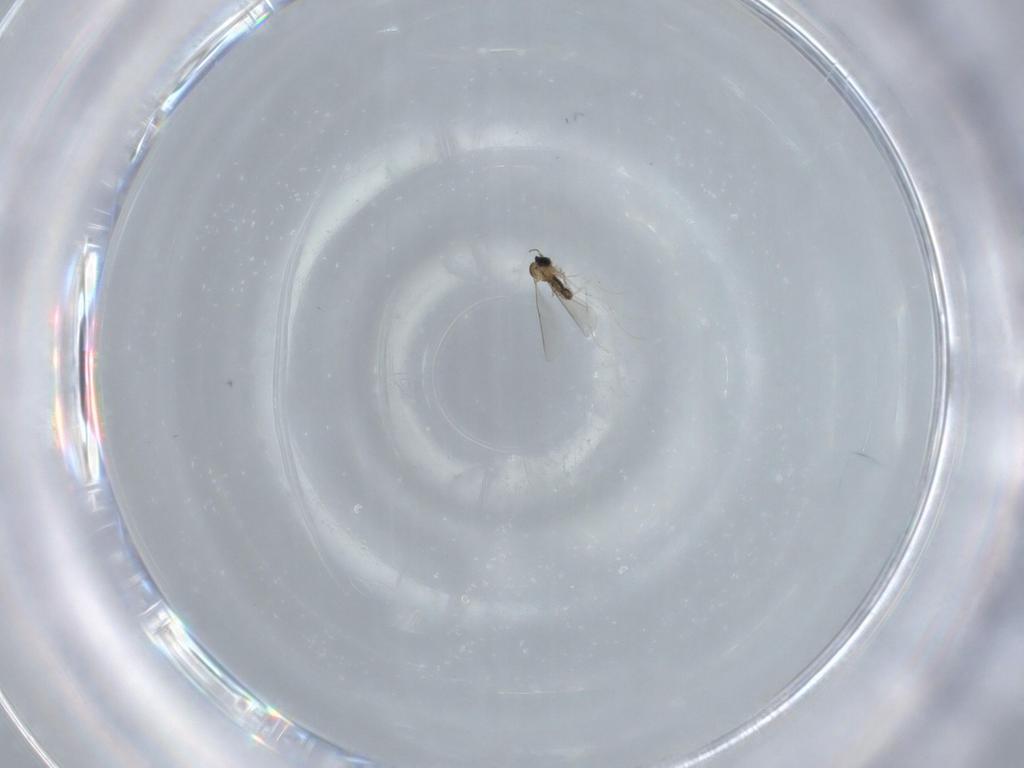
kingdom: Animalia
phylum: Arthropoda
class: Insecta
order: Diptera
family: Cecidomyiidae
